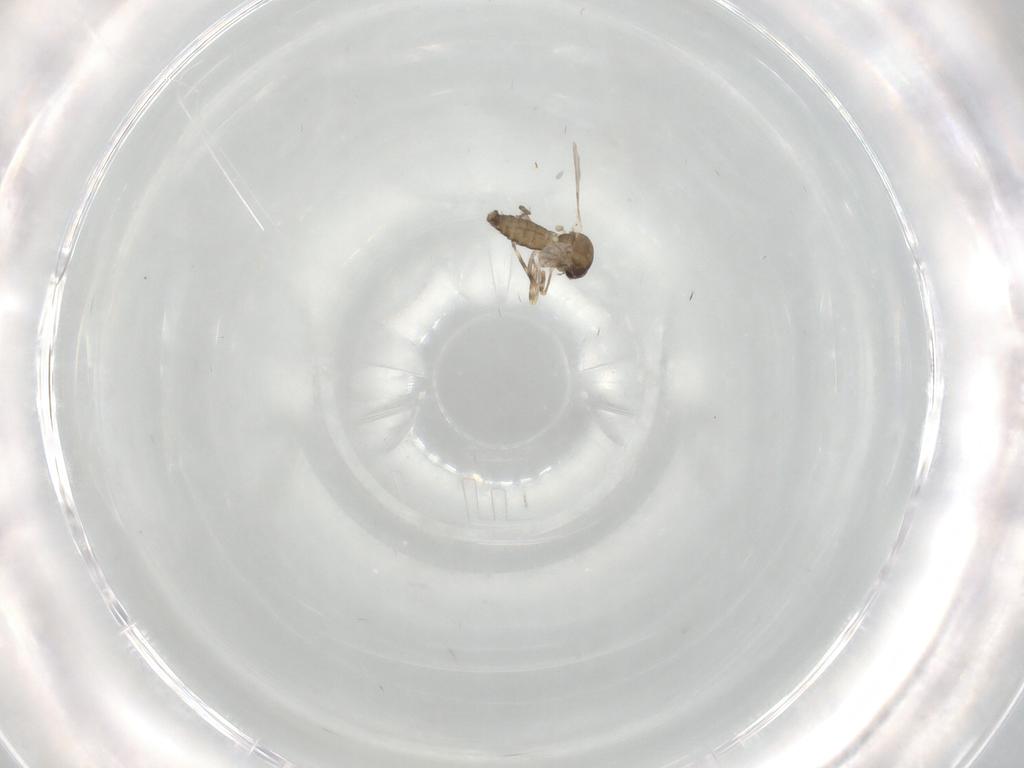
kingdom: Animalia
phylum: Arthropoda
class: Insecta
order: Diptera
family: Ceratopogonidae
